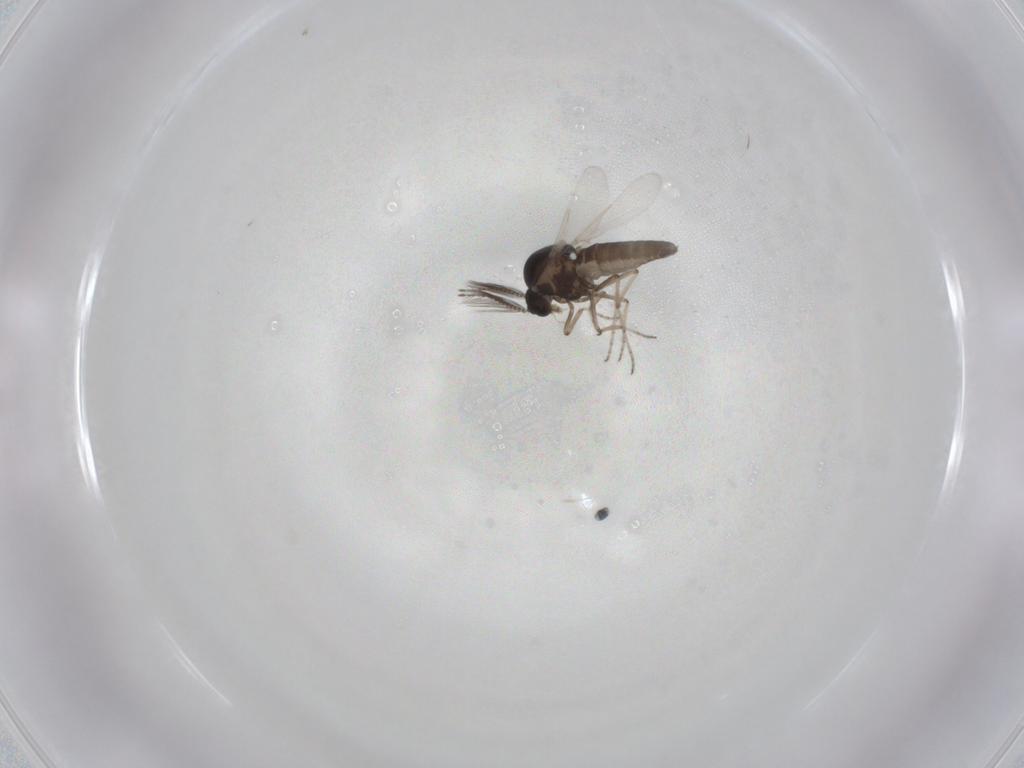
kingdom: Animalia
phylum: Arthropoda
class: Insecta
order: Diptera
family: Ceratopogonidae
